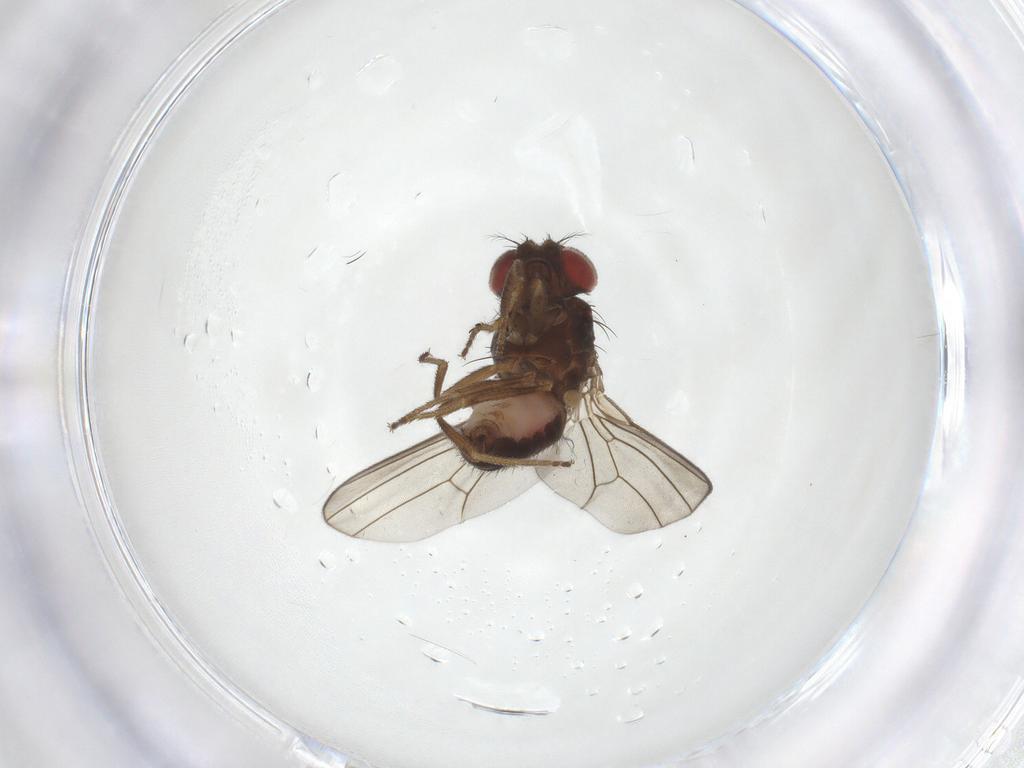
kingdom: Animalia
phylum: Arthropoda
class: Insecta
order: Diptera
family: Drosophilidae
